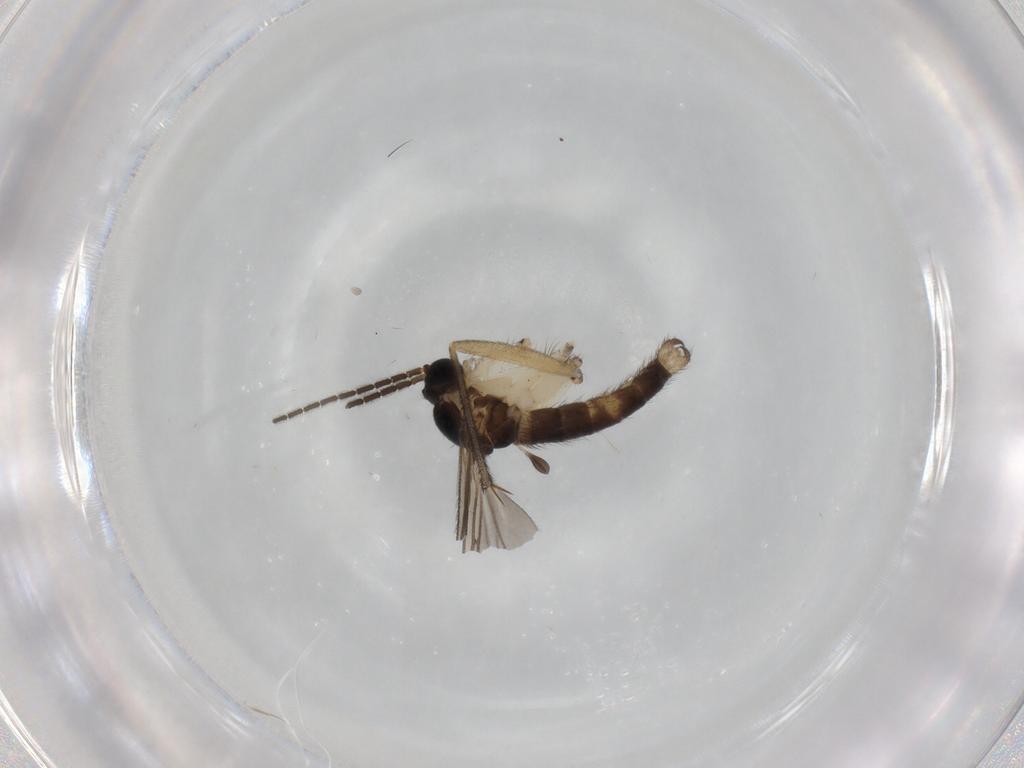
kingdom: Animalia
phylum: Arthropoda
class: Insecta
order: Diptera
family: Sciaridae
